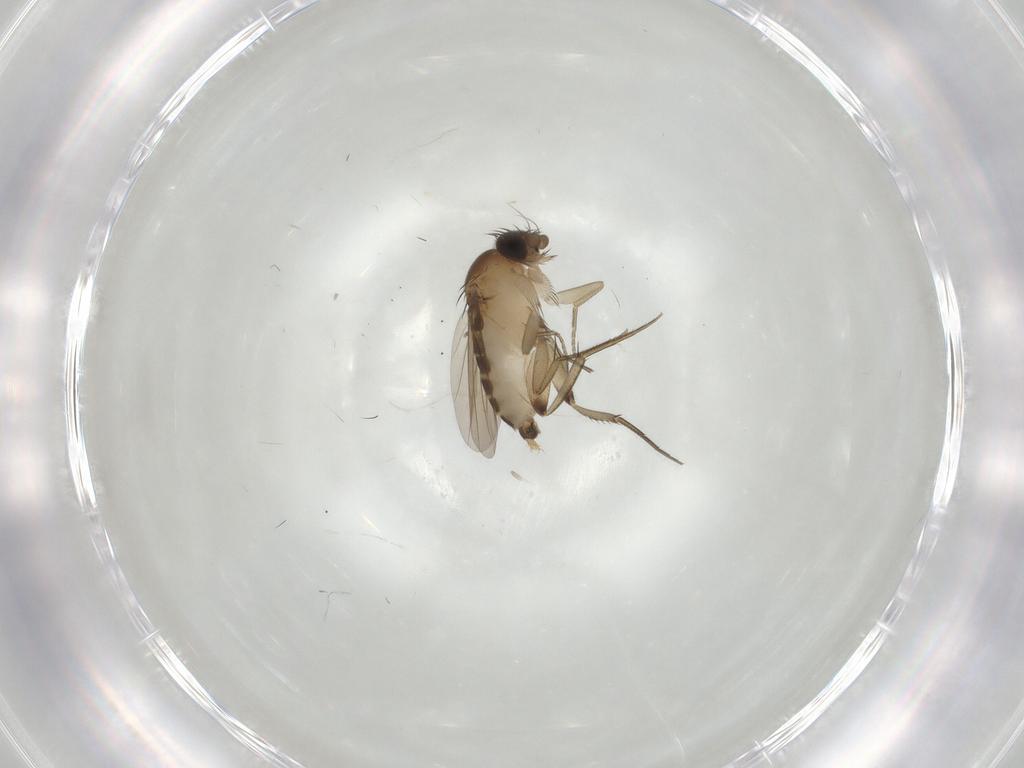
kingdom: Animalia
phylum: Arthropoda
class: Insecta
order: Diptera
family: Phoridae
